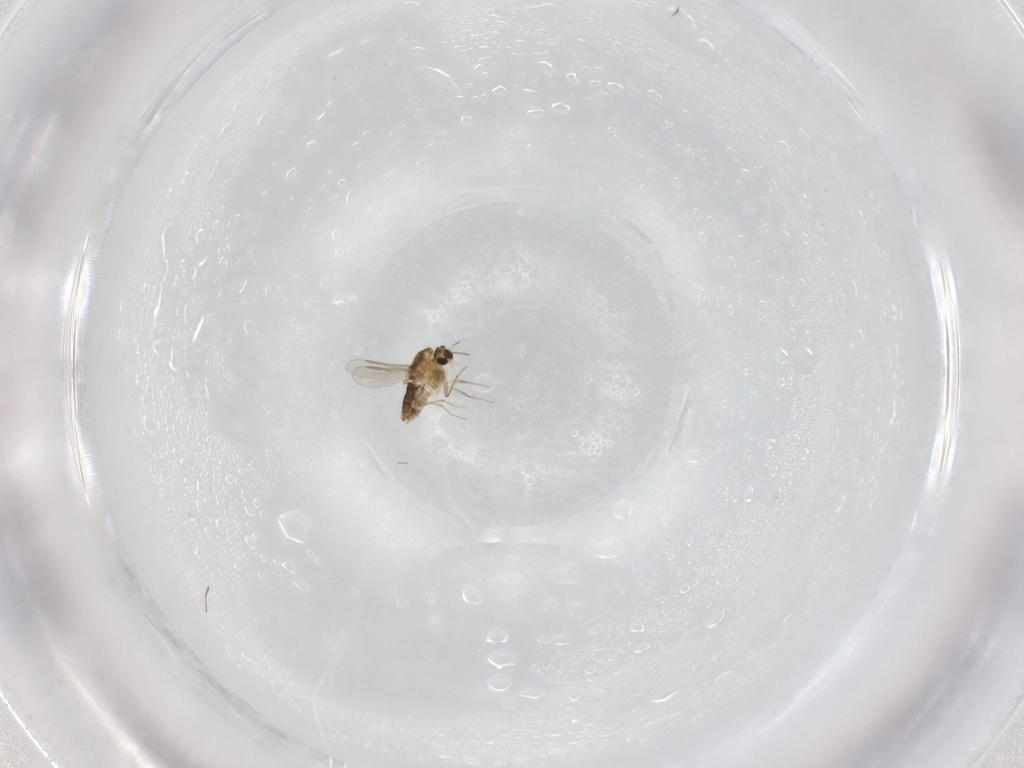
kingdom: Animalia
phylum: Arthropoda
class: Insecta
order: Diptera
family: Chironomidae
